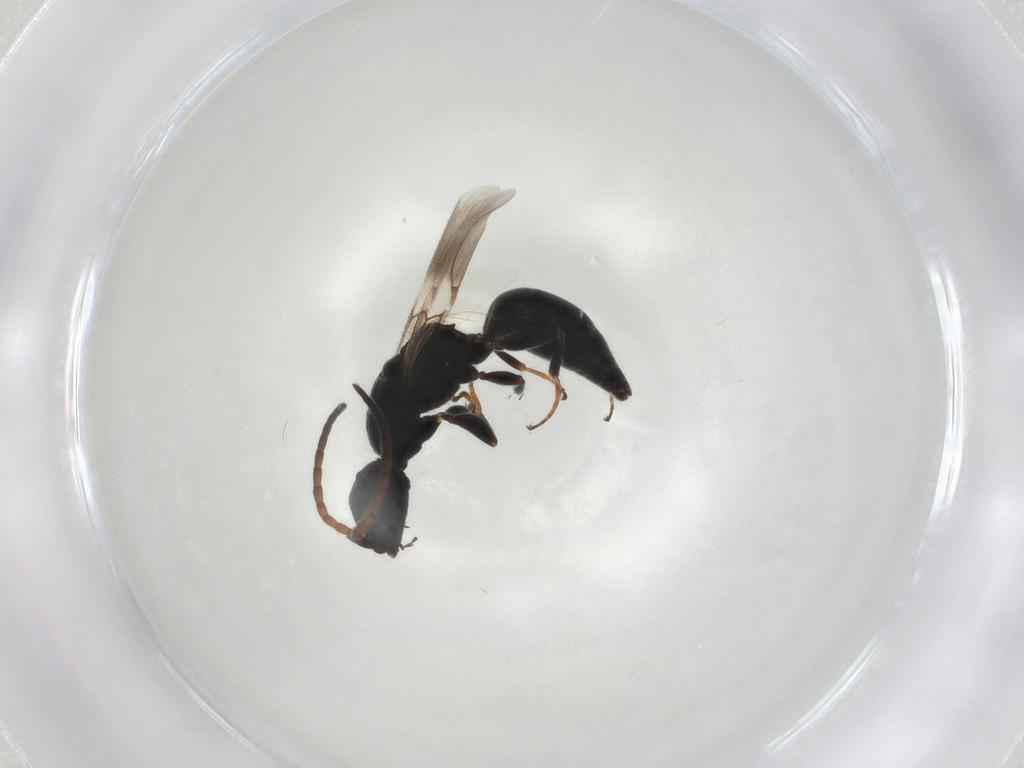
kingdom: Animalia
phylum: Arthropoda
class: Insecta
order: Hymenoptera
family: Bethylidae
